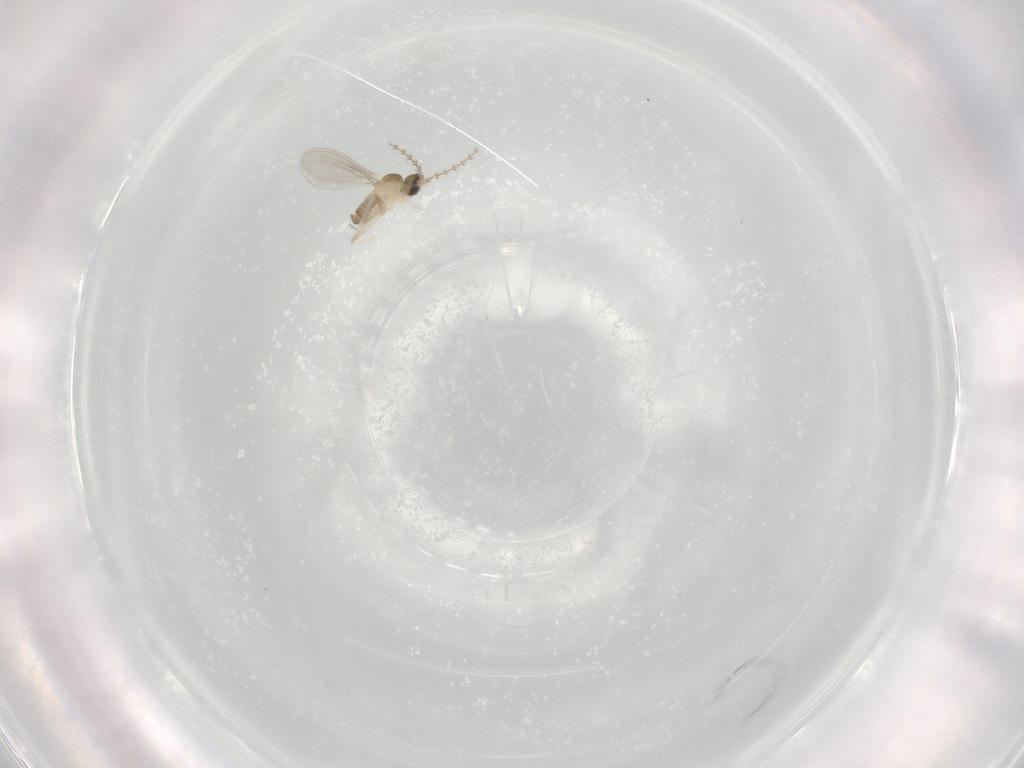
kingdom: Animalia
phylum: Arthropoda
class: Insecta
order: Diptera
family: Cecidomyiidae
